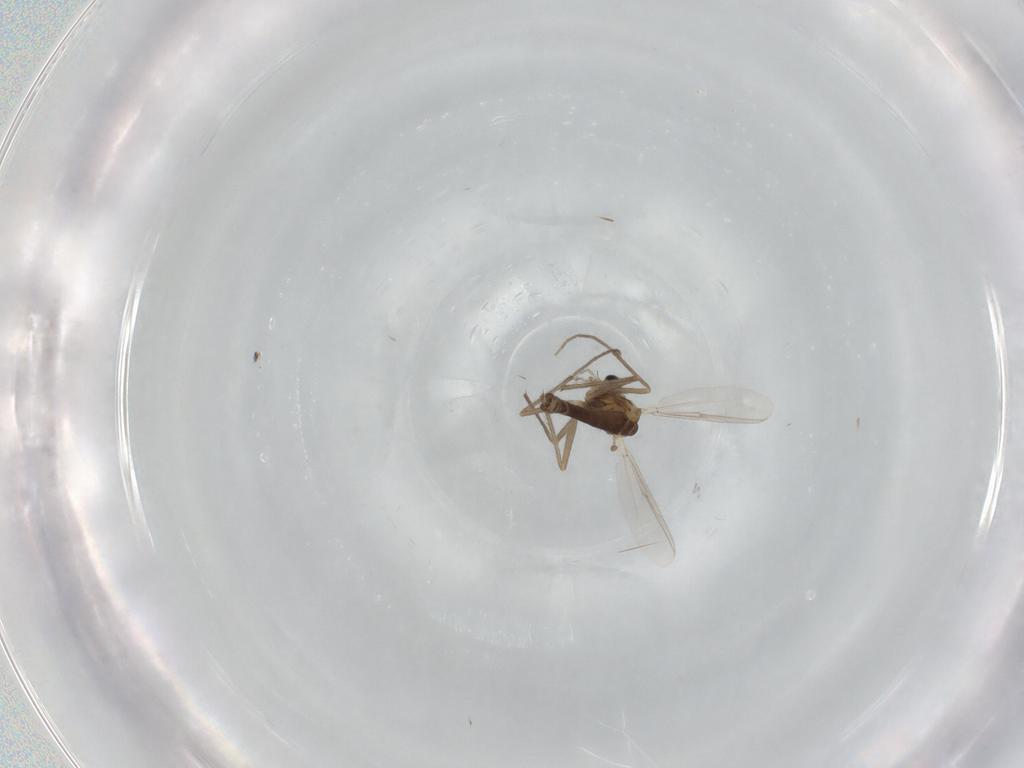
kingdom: Animalia
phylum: Arthropoda
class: Insecta
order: Diptera
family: Chironomidae
